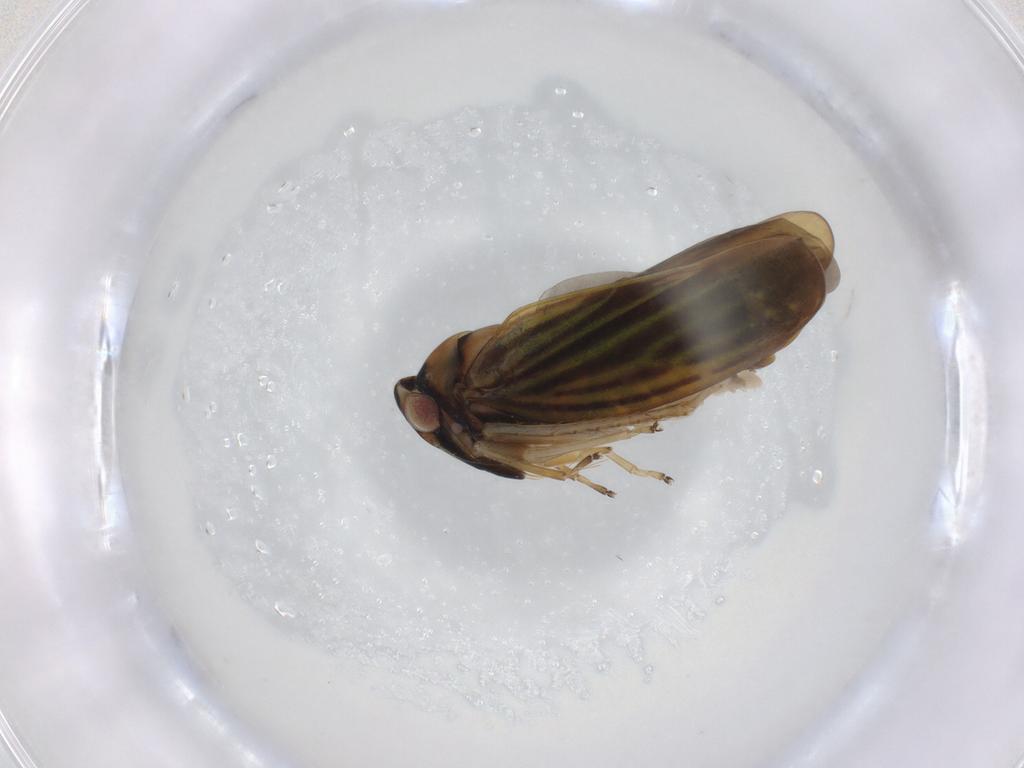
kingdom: Animalia
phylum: Arthropoda
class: Insecta
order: Hemiptera
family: Cicadellidae
